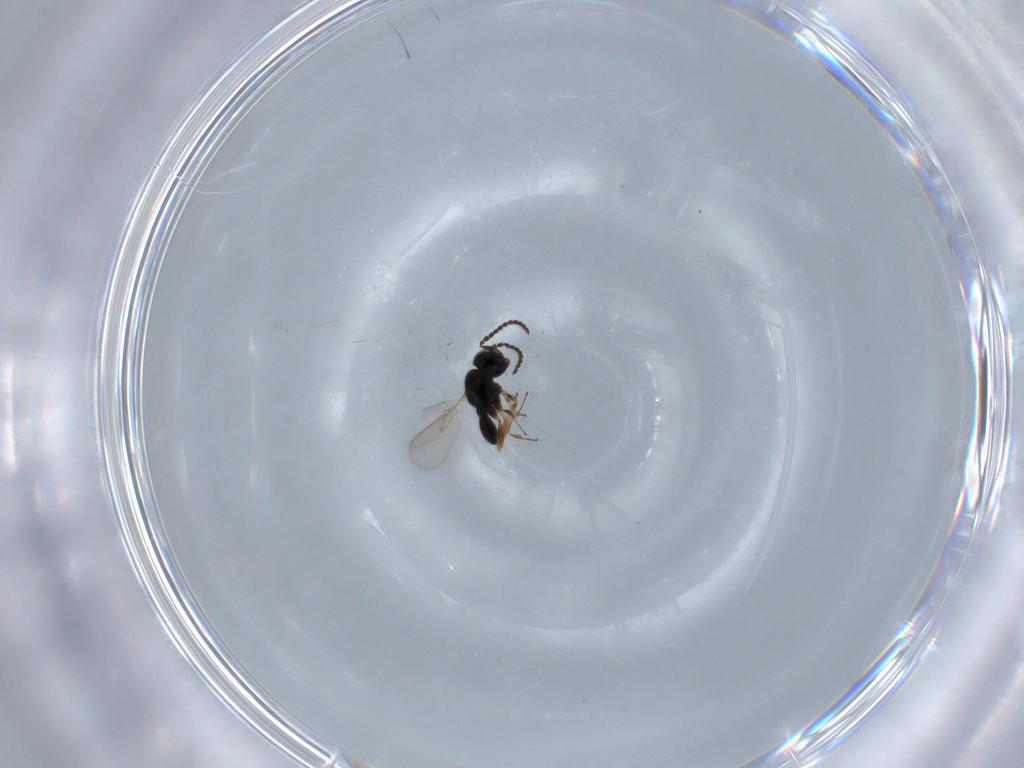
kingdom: Animalia
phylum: Arthropoda
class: Insecta
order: Hymenoptera
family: Scelionidae
